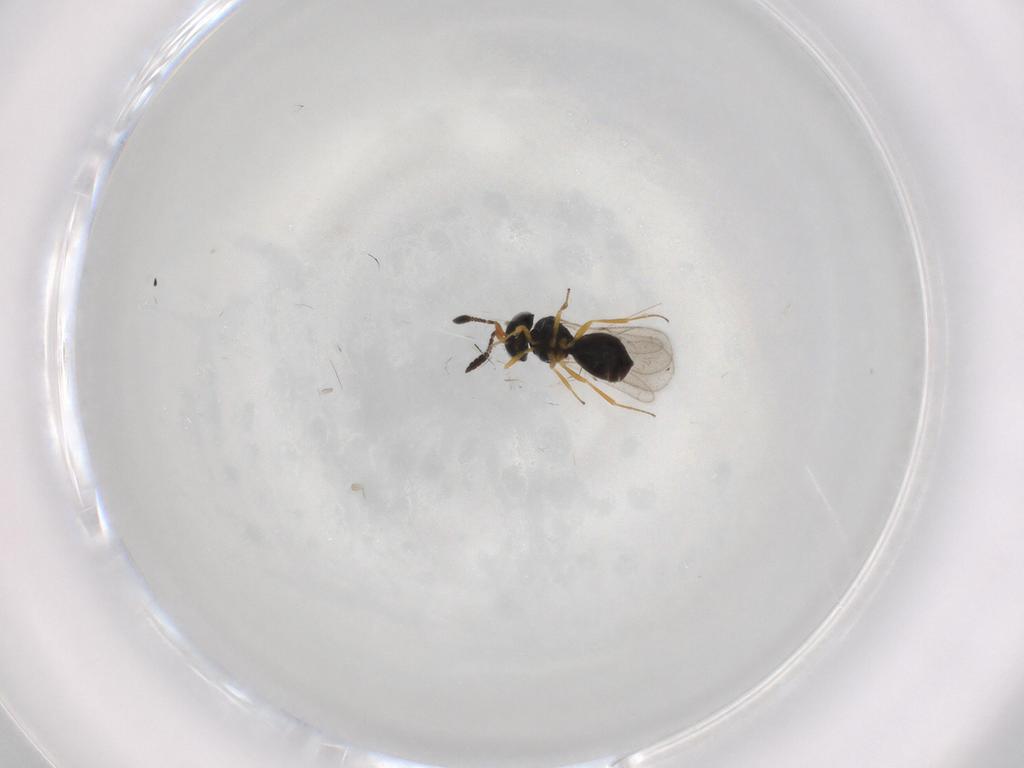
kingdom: Animalia
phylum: Arthropoda
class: Insecta
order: Hymenoptera
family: Scelionidae
